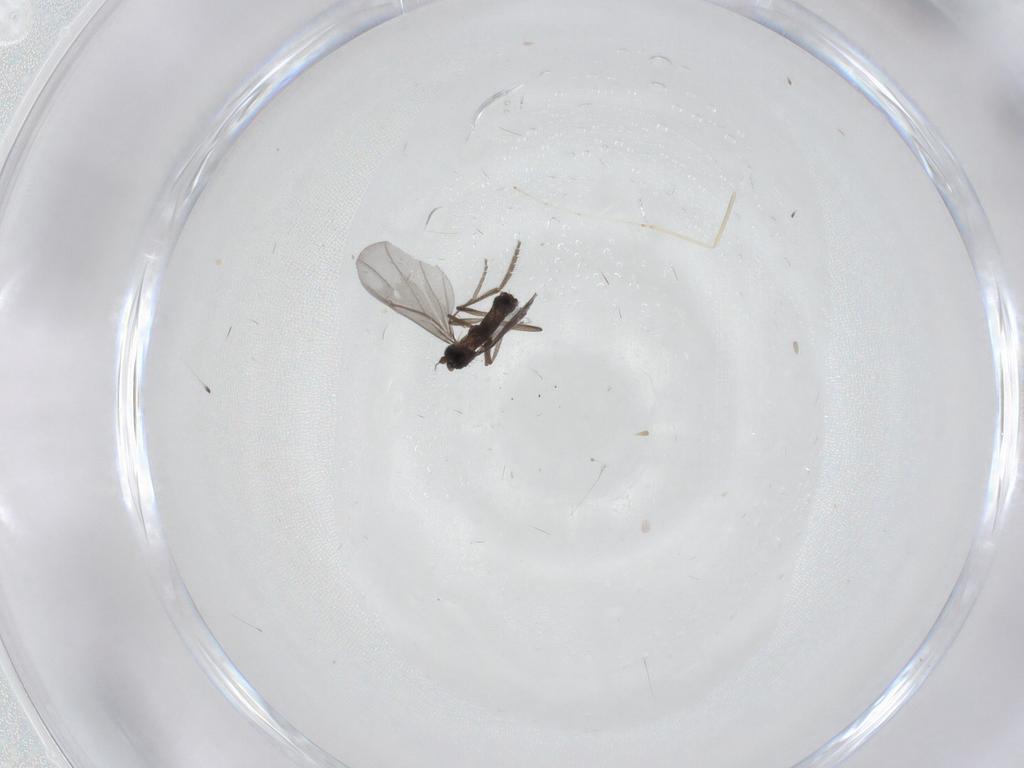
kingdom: Animalia
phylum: Arthropoda
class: Insecta
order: Diptera
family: Phoridae
